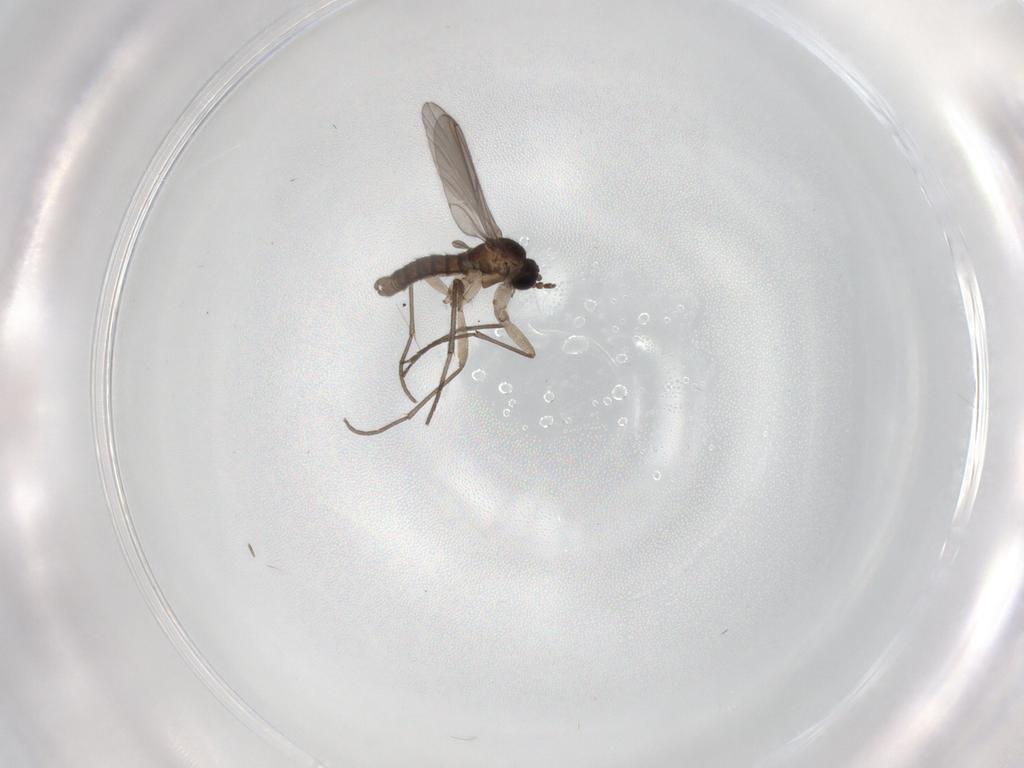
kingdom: Animalia
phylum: Arthropoda
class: Insecta
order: Diptera
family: Sciaridae
